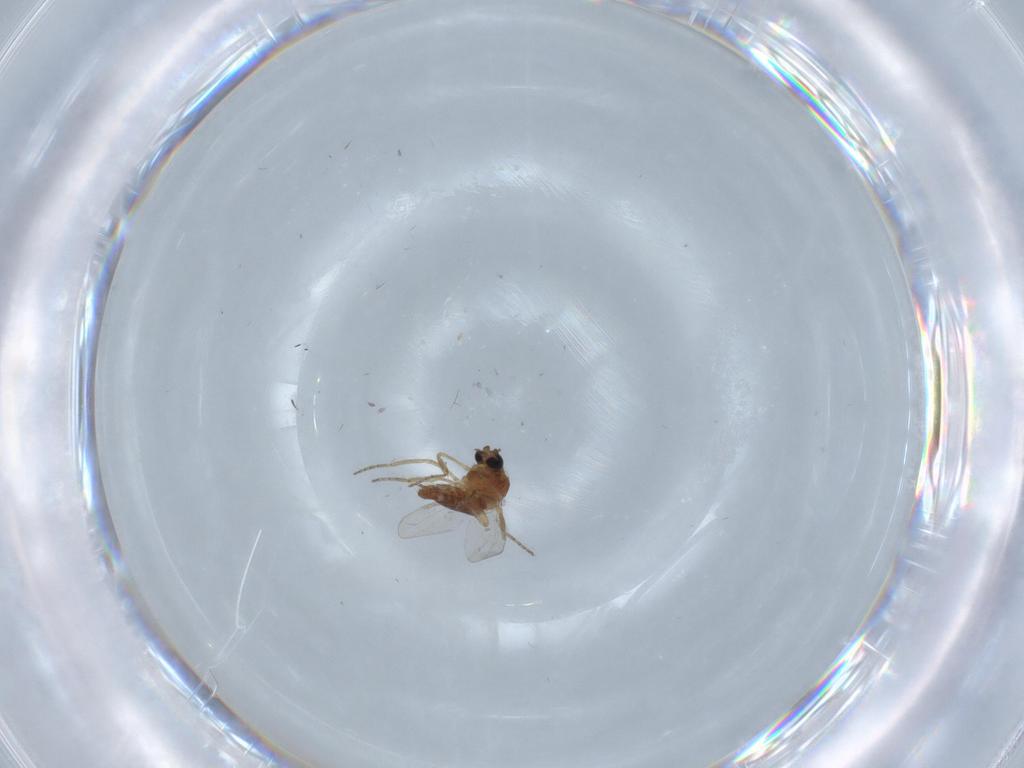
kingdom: Animalia
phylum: Arthropoda
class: Insecta
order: Diptera
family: Ceratopogonidae
